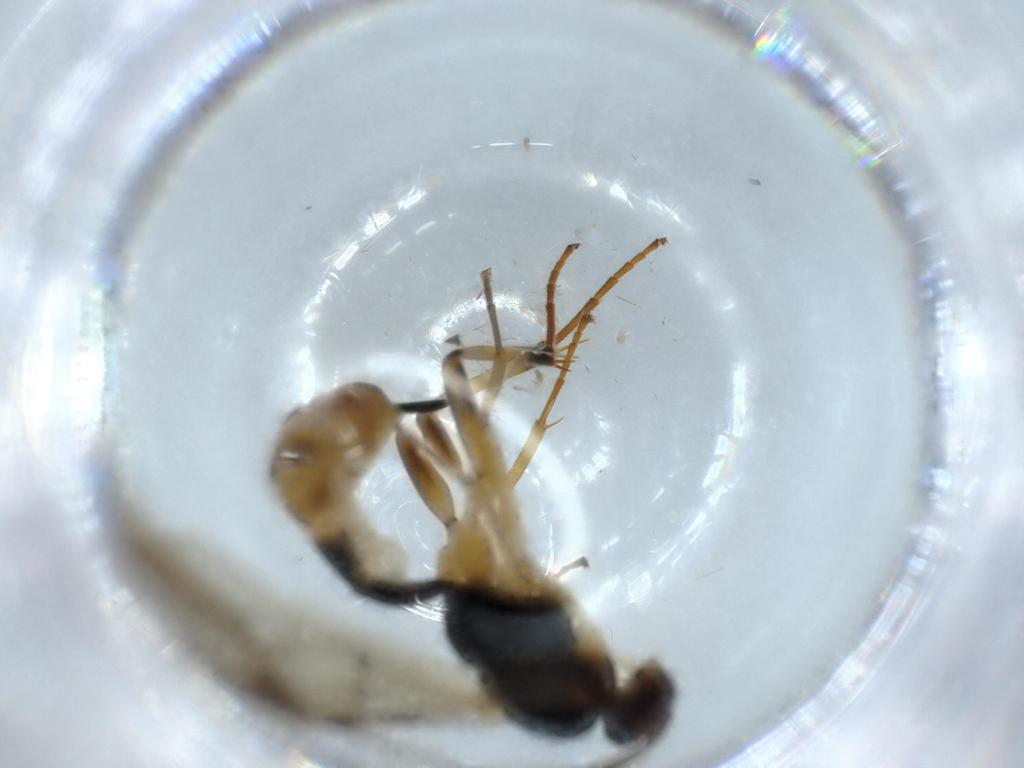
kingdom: Animalia
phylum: Arthropoda
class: Insecta
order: Hymenoptera
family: Ichneumonidae
